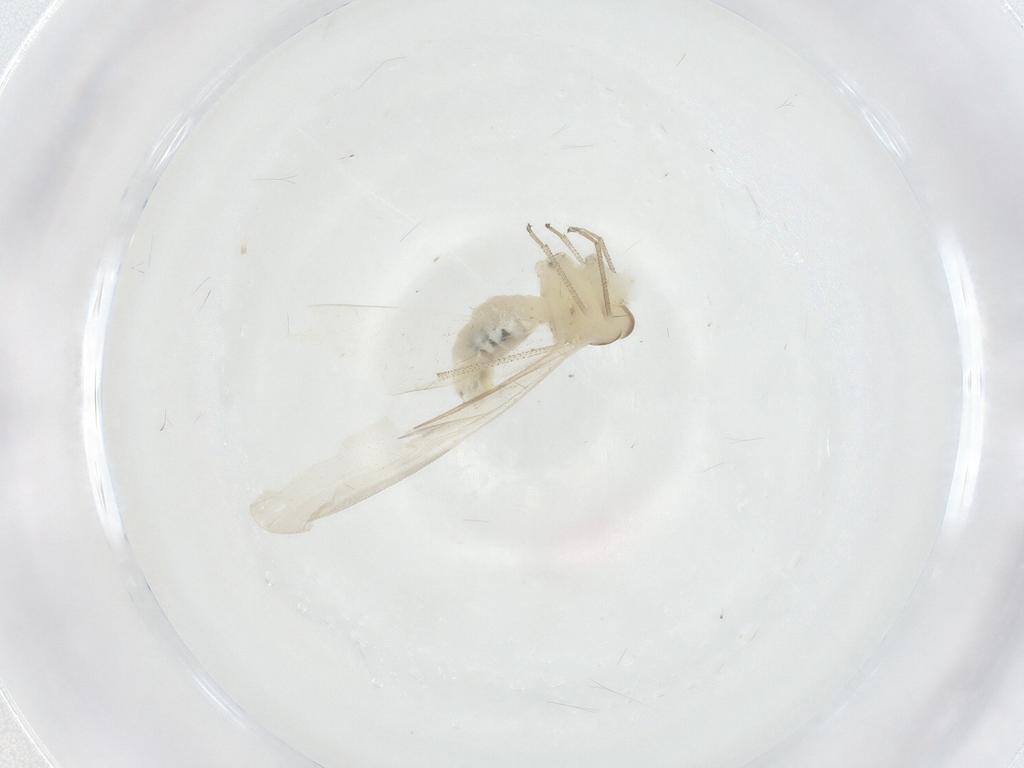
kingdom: Animalia
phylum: Arthropoda
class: Insecta
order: Psocodea
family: Caeciliusidae
